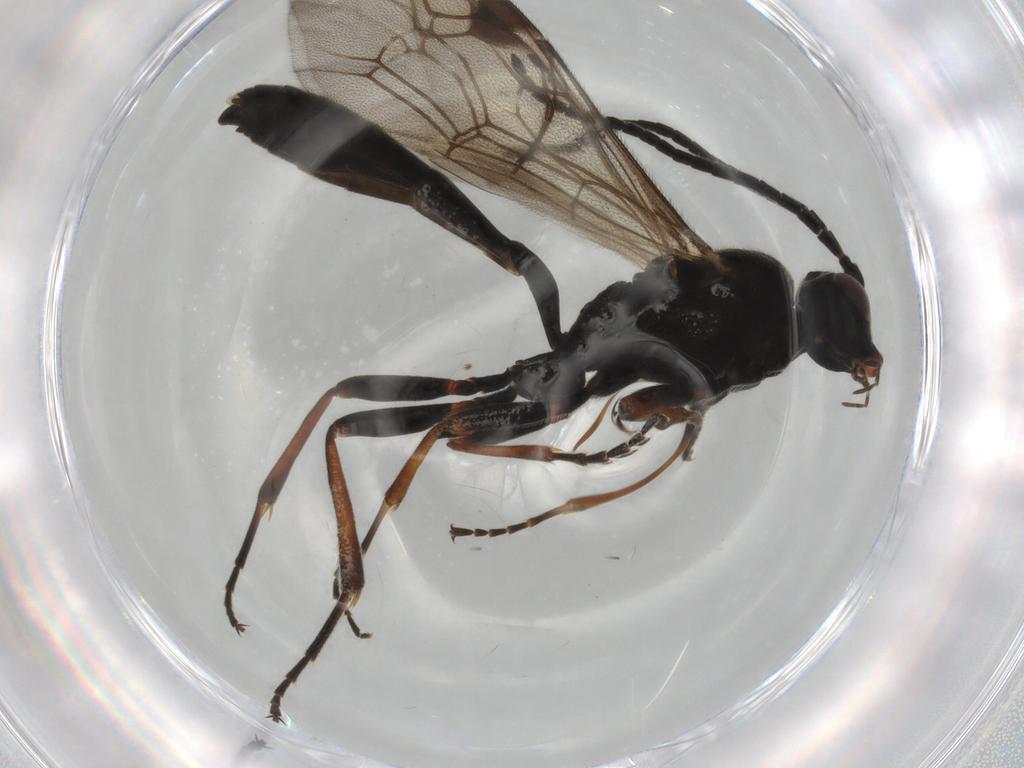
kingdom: Animalia
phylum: Arthropoda
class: Insecta
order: Hymenoptera
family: Ichneumonidae
